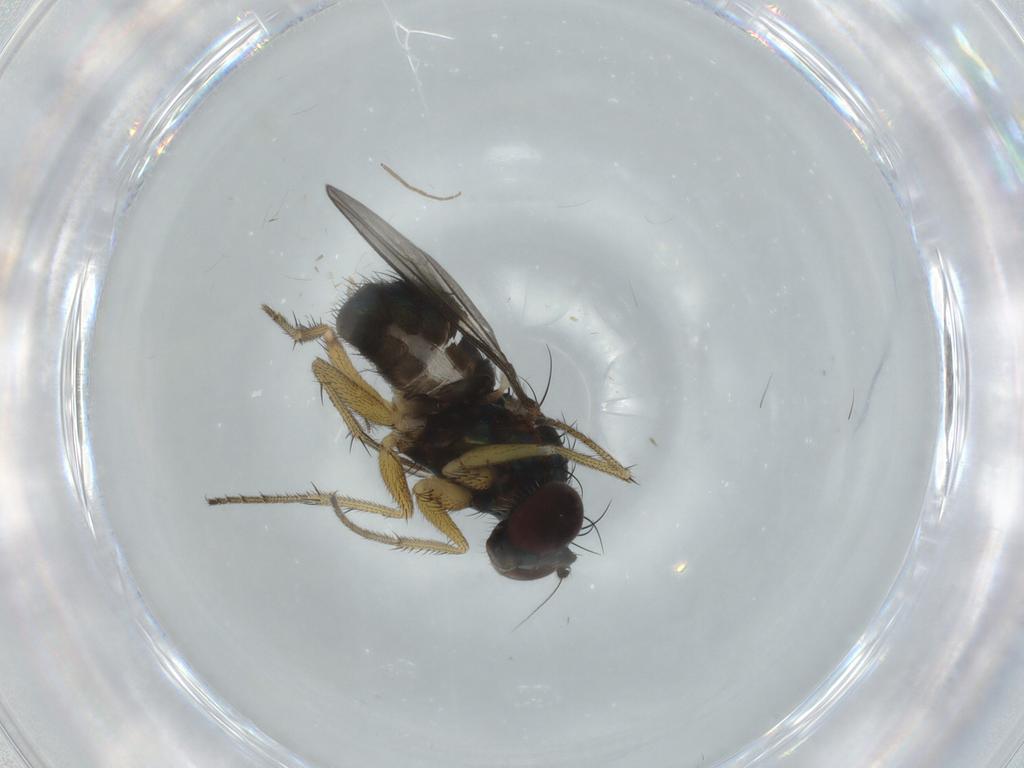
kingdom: Animalia
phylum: Arthropoda
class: Insecta
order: Diptera
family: Dolichopodidae
